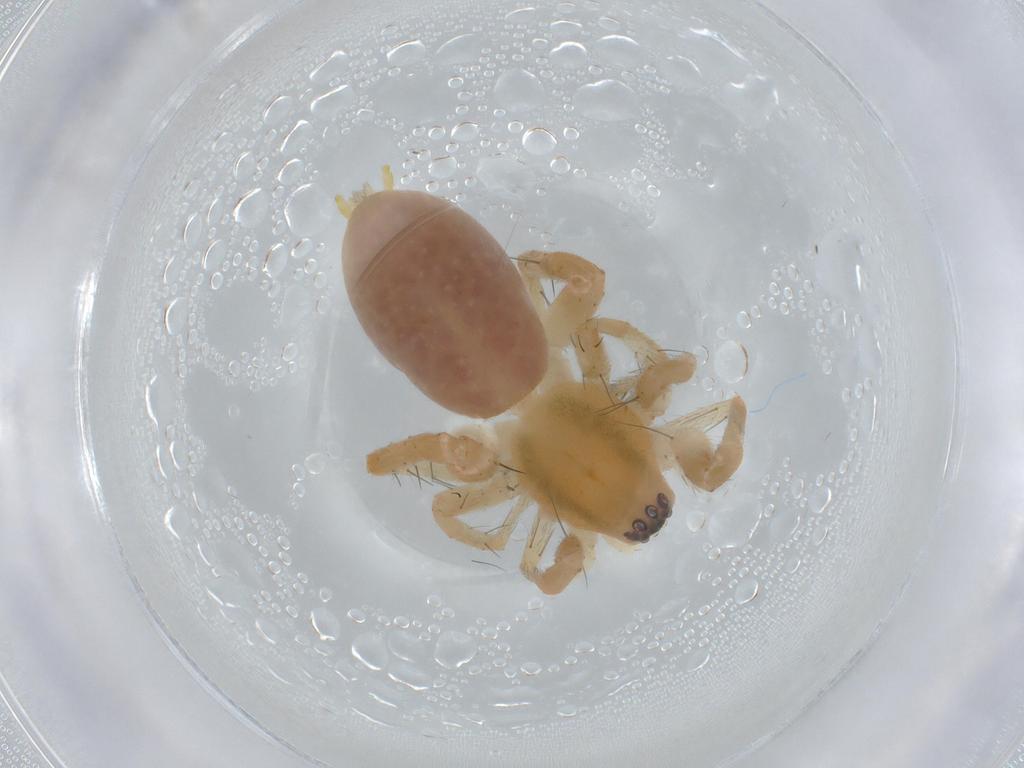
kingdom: Animalia
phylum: Arthropoda
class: Arachnida
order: Araneae
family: Anyphaenidae
